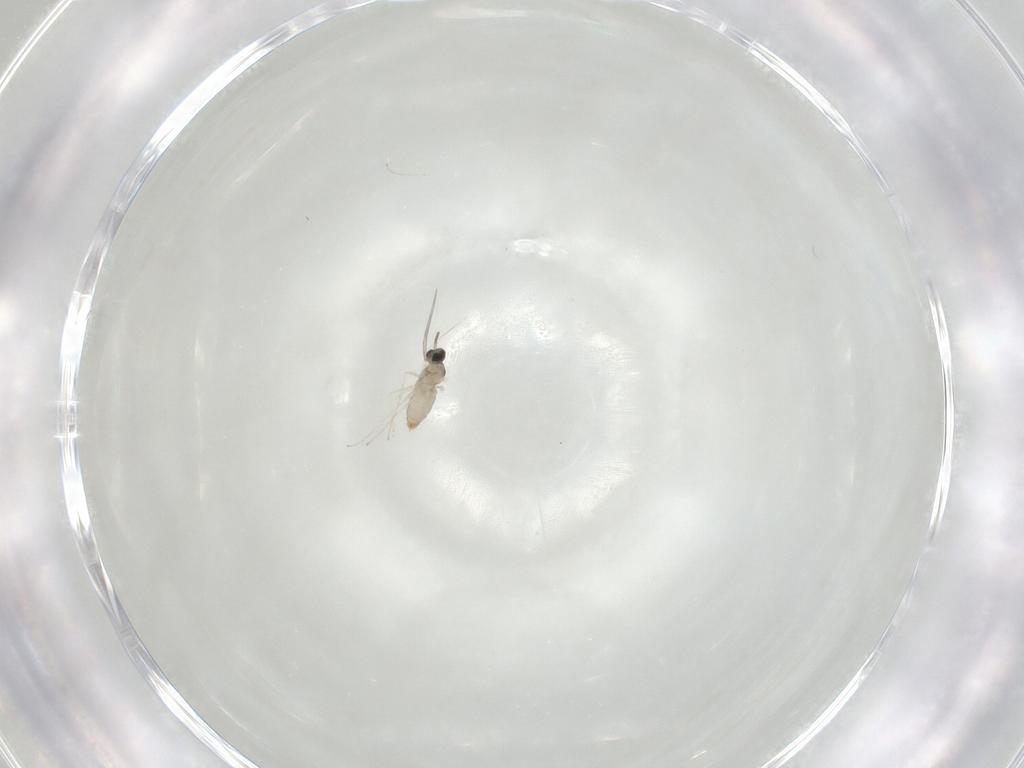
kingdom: Animalia
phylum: Arthropoda
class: Insecta
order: Diptera
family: Cecidomyiidae
